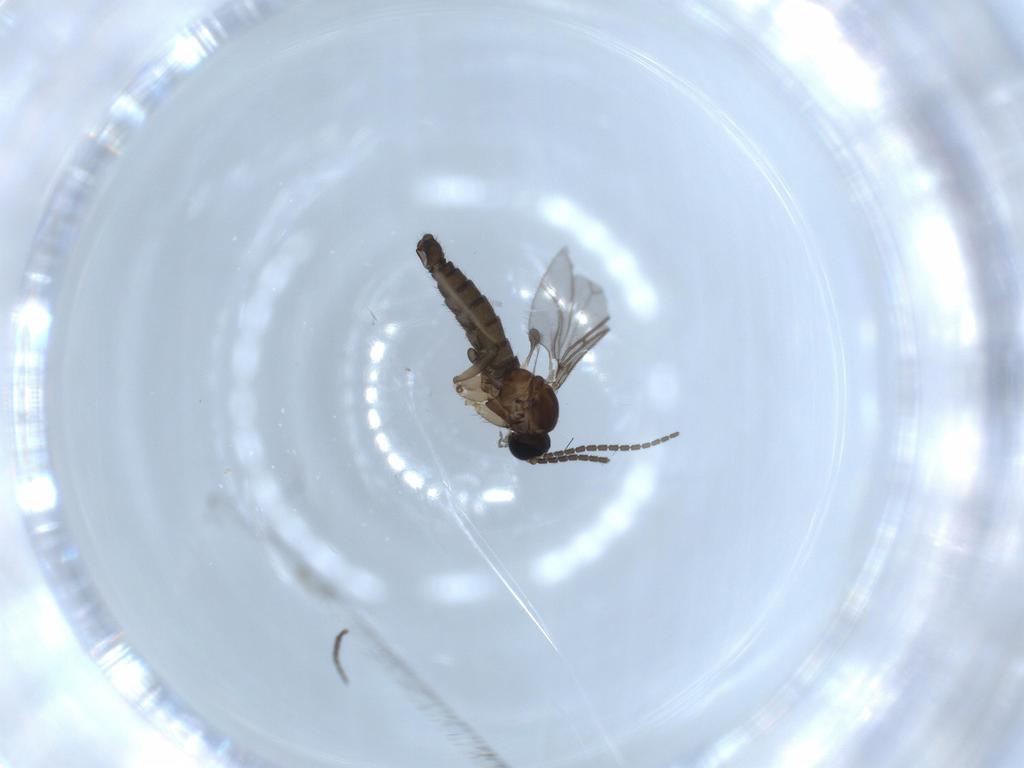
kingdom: Animalia
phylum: Arthropoda
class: Insecta
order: Diptera
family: Sciaridae
